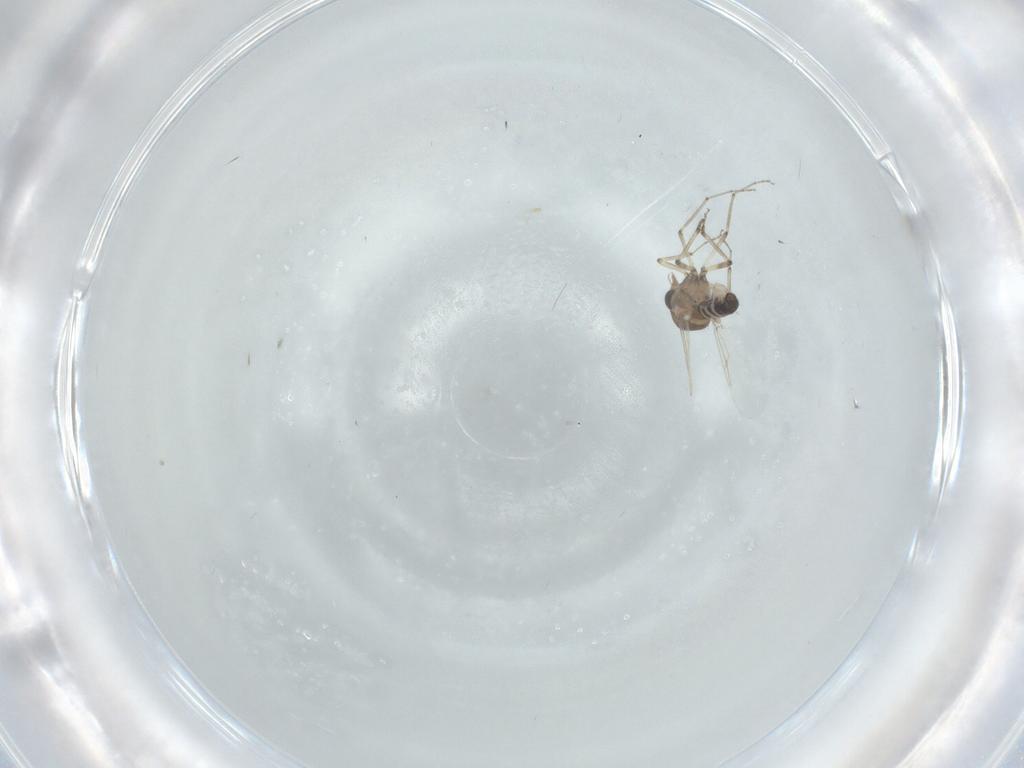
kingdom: Animalia
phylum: Arthropoda
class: Insecta
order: Diptera
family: Ceratopogonidae
